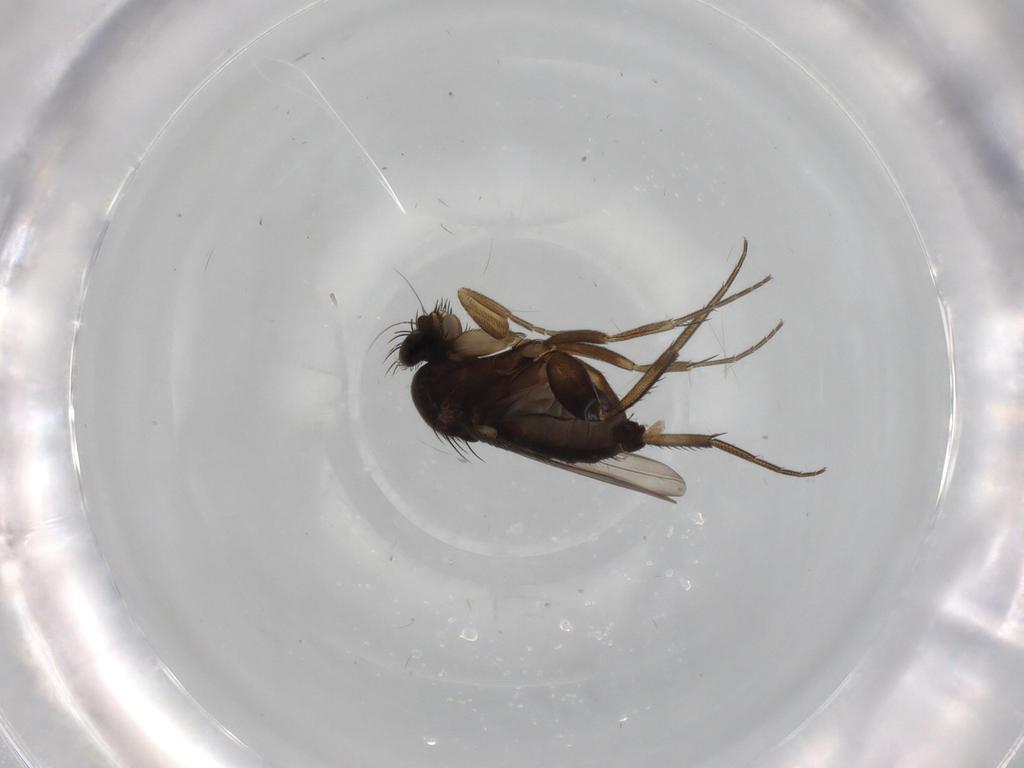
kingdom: Animalia
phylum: Arthropoda
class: Insecta
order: Diptera
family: Phoridae
